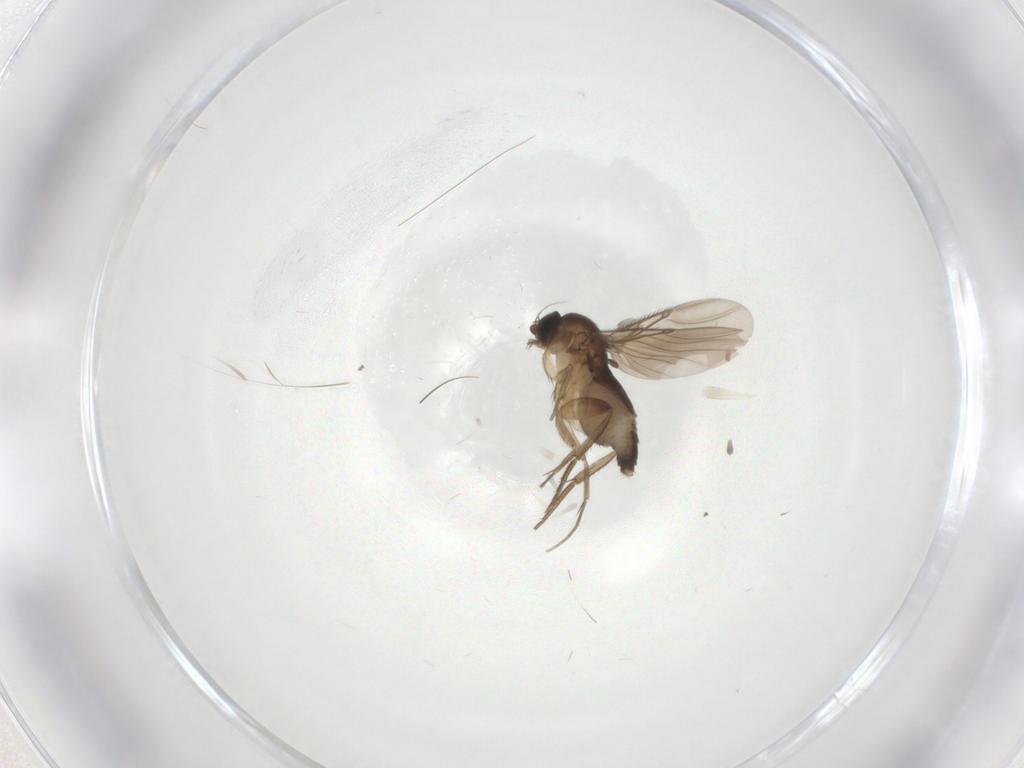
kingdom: Animalia
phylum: Arthropoda
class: Insecta
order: Diptera
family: Phoridae
